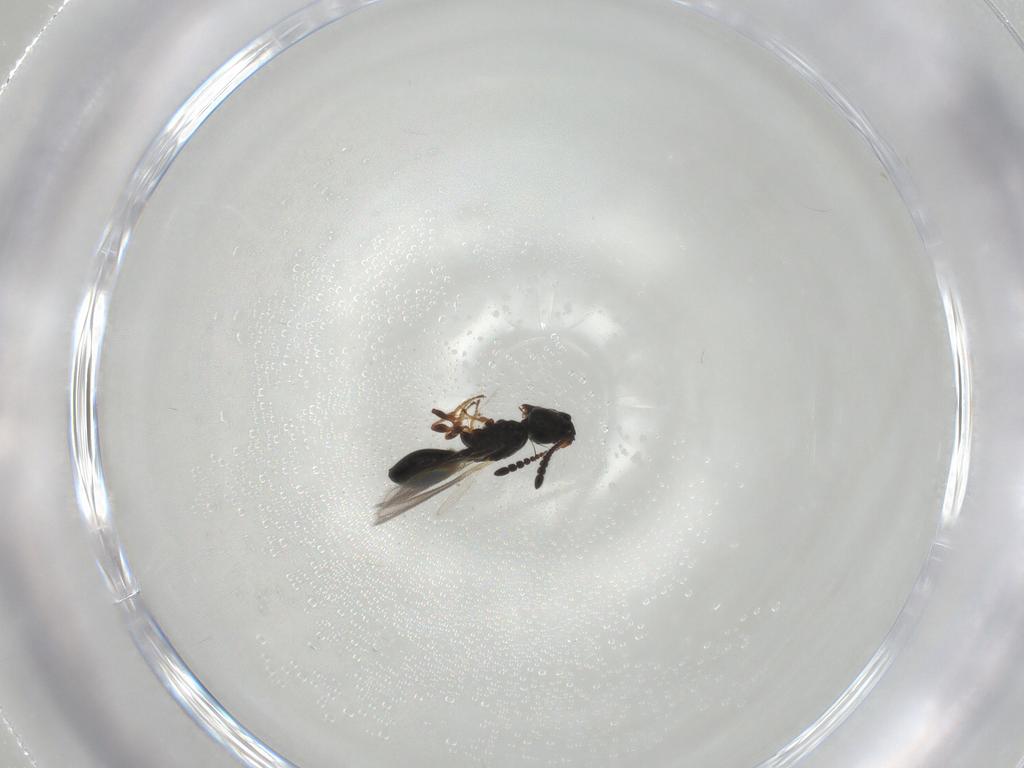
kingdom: Animalia
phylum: Arthropoda
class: Insecta
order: Hymenoptera
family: Diapriidae
